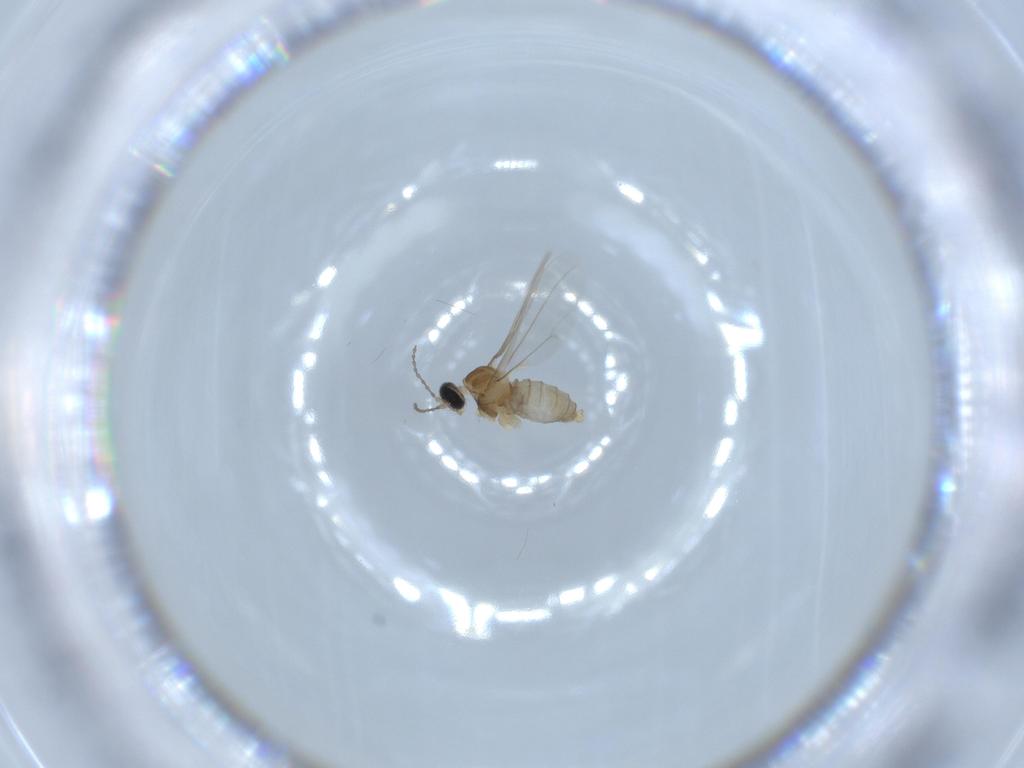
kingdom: Animalia
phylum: Arthropoda
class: Insecta
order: Diptera
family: Cecidomyiidae
